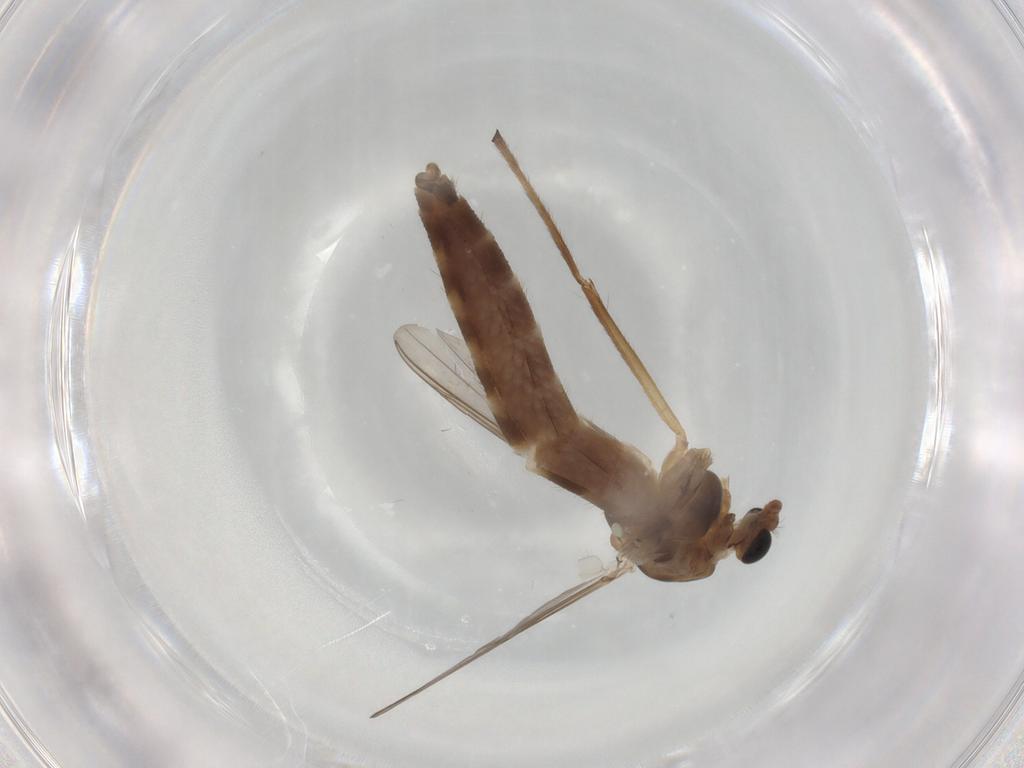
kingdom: Animalia
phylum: Arthropoda
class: Insecta
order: Diptera
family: Chironomidae
